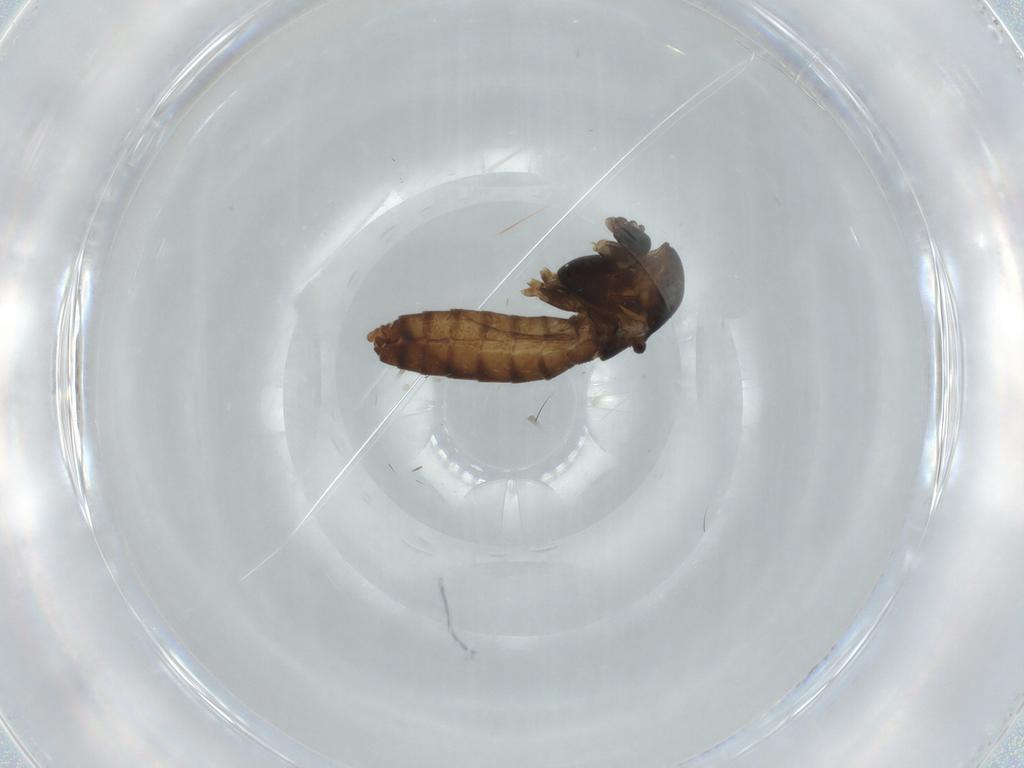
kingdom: Animalia
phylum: Arthropoda
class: Insecta
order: Diptera
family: Chironomidae
